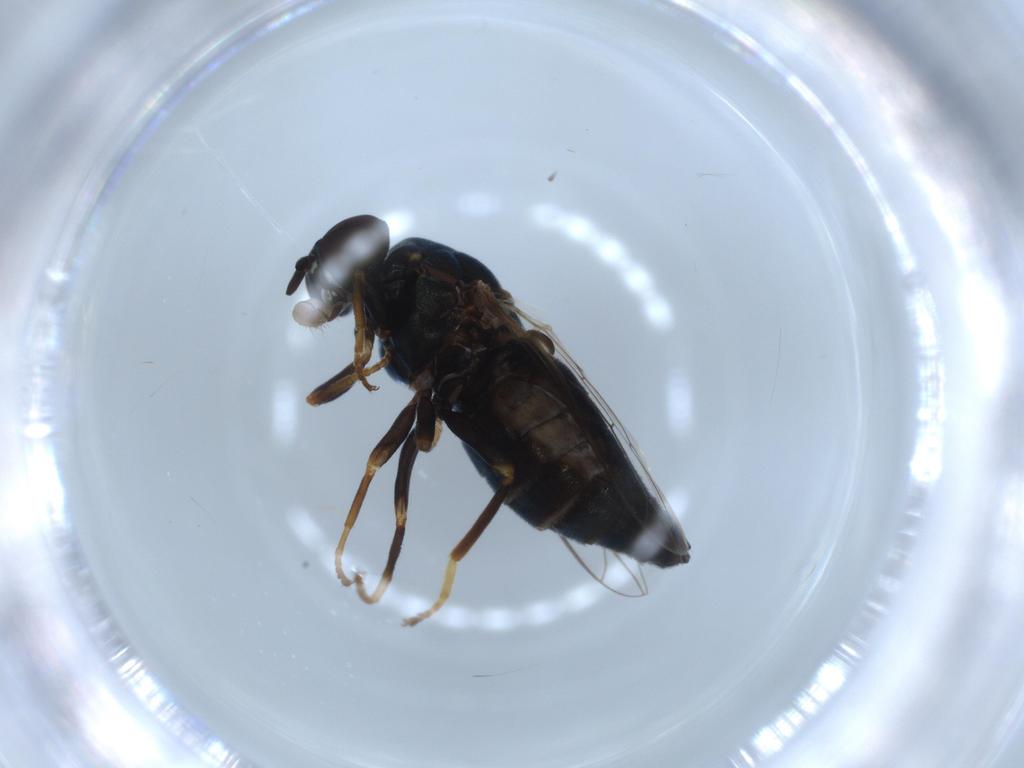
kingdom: Animalia
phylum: Arthropoda
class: Insecta
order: Diptera
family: Scenopinidae
